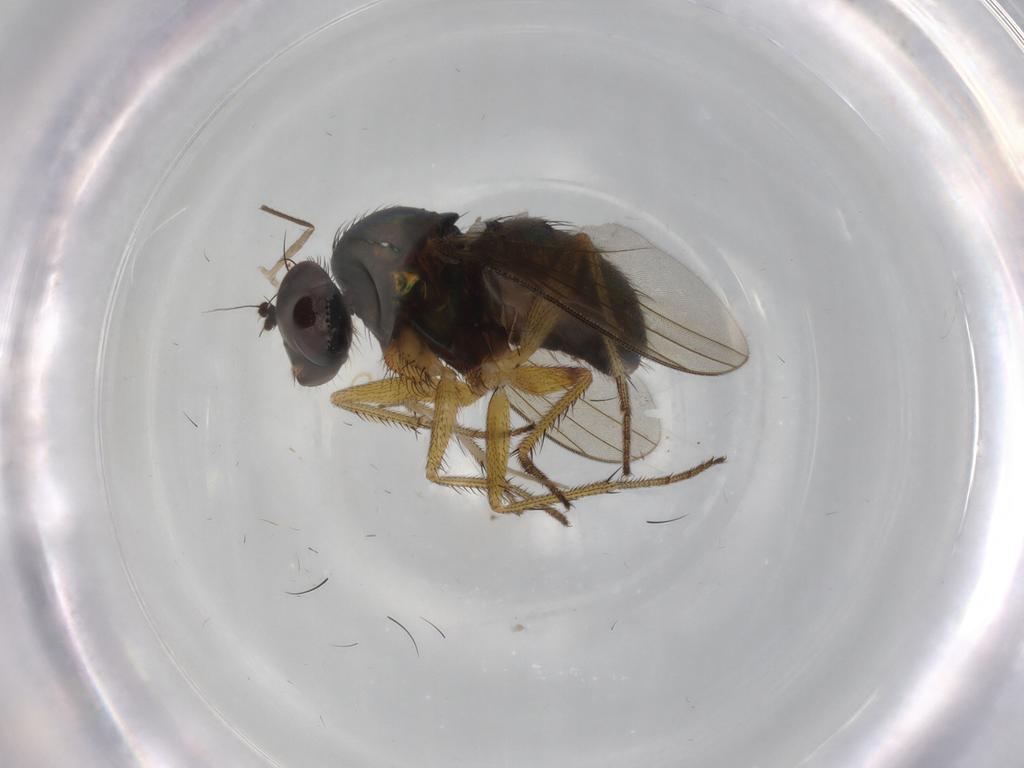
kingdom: Animalia
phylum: Arthropoda
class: Insecta
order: Diptera
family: Dolichopodidae
